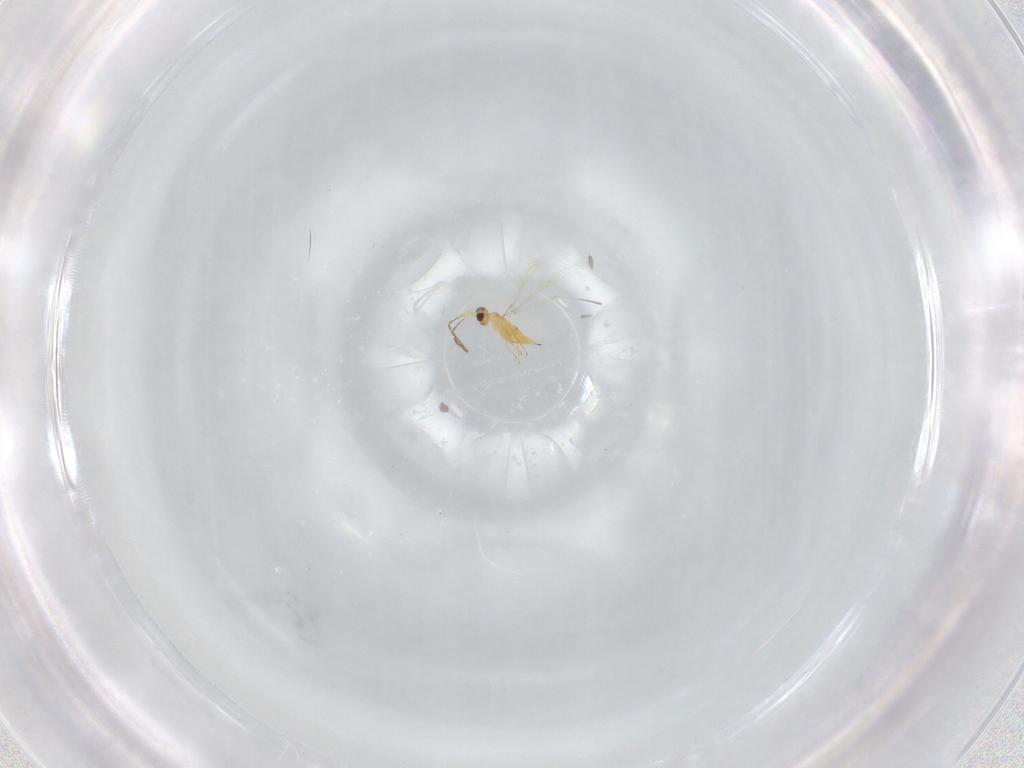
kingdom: Animalia
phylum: Arthropoda
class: Insecta
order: Hymenoptera
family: Mymaridae
